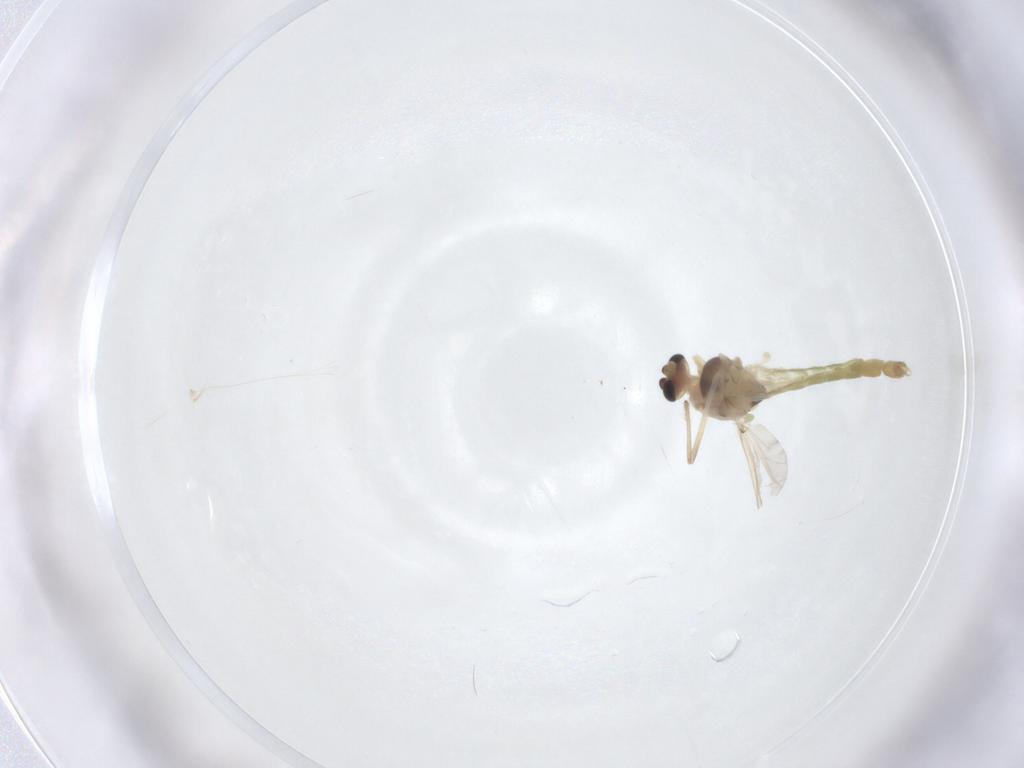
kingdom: Animalia
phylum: Arthropoda
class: Insecta
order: Diptera
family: Chironomidae
